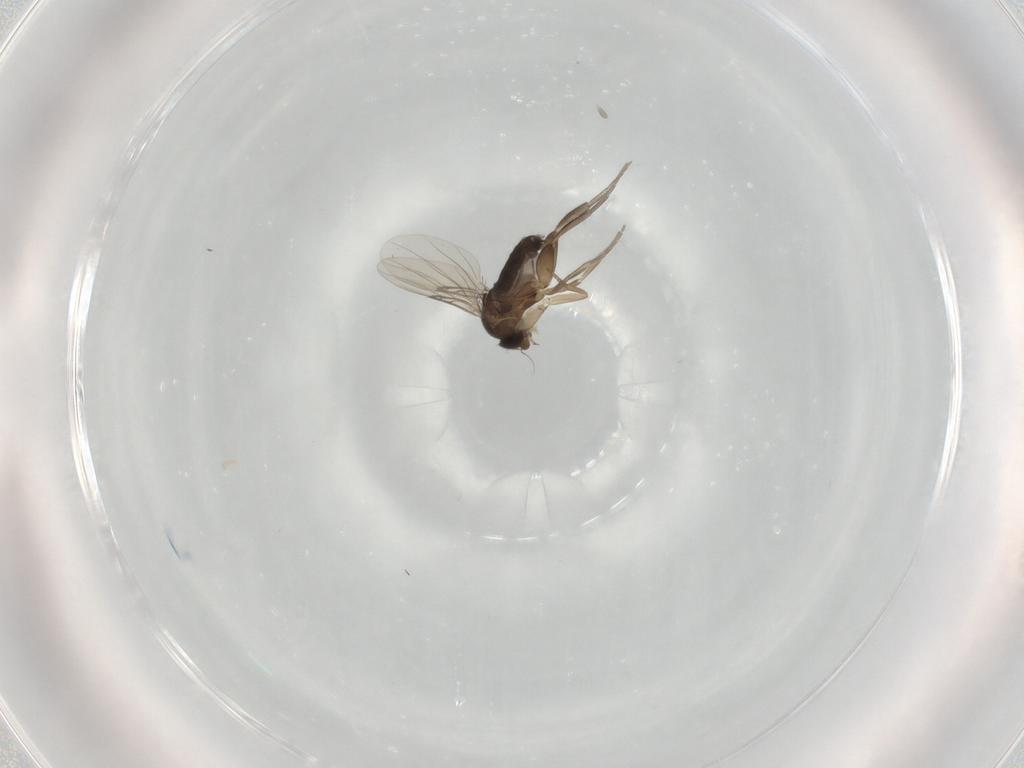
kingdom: Animalia
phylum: Arthropoda
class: Insecta
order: Diptera
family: Phoridae
